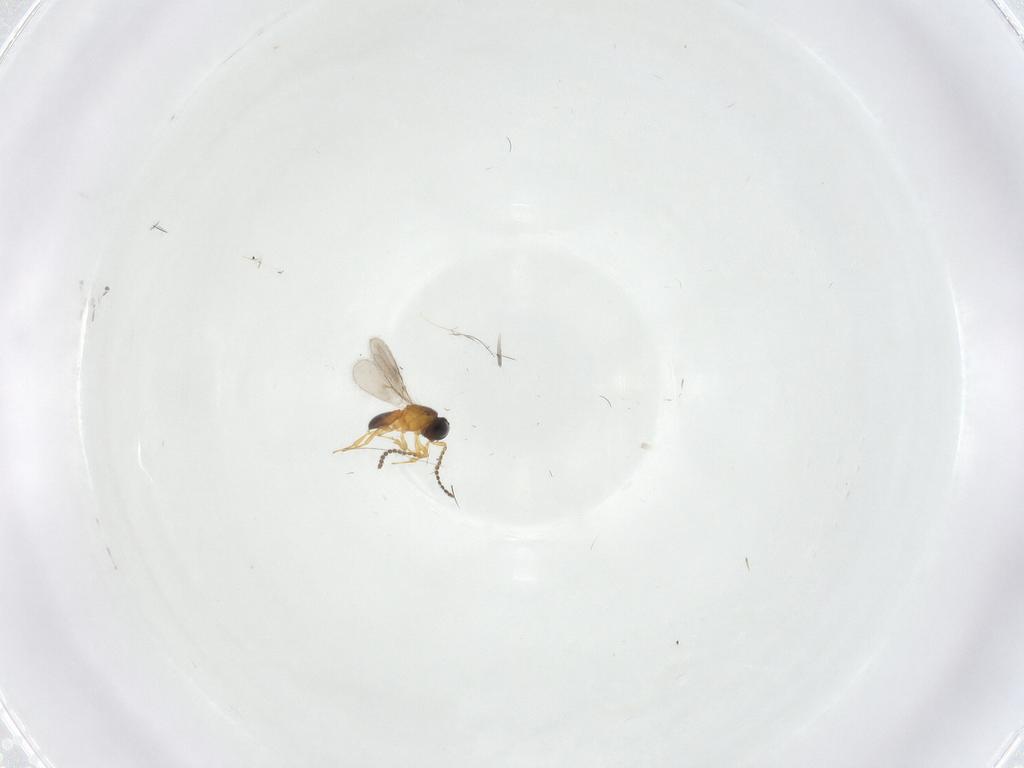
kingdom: Animalia
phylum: Arthropoda
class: Insecta
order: Hymenoptera
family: Scelionidae
